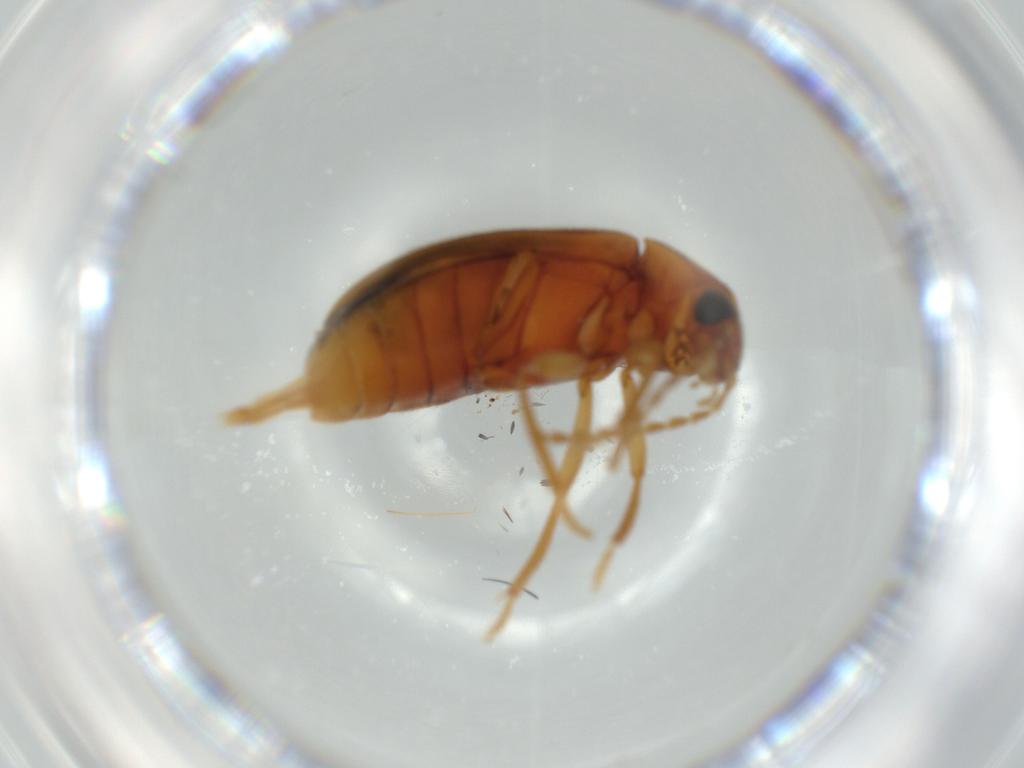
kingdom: Animalia
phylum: Arthropoda
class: Insecta
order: Coleoptera
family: Ptilodactylidae
